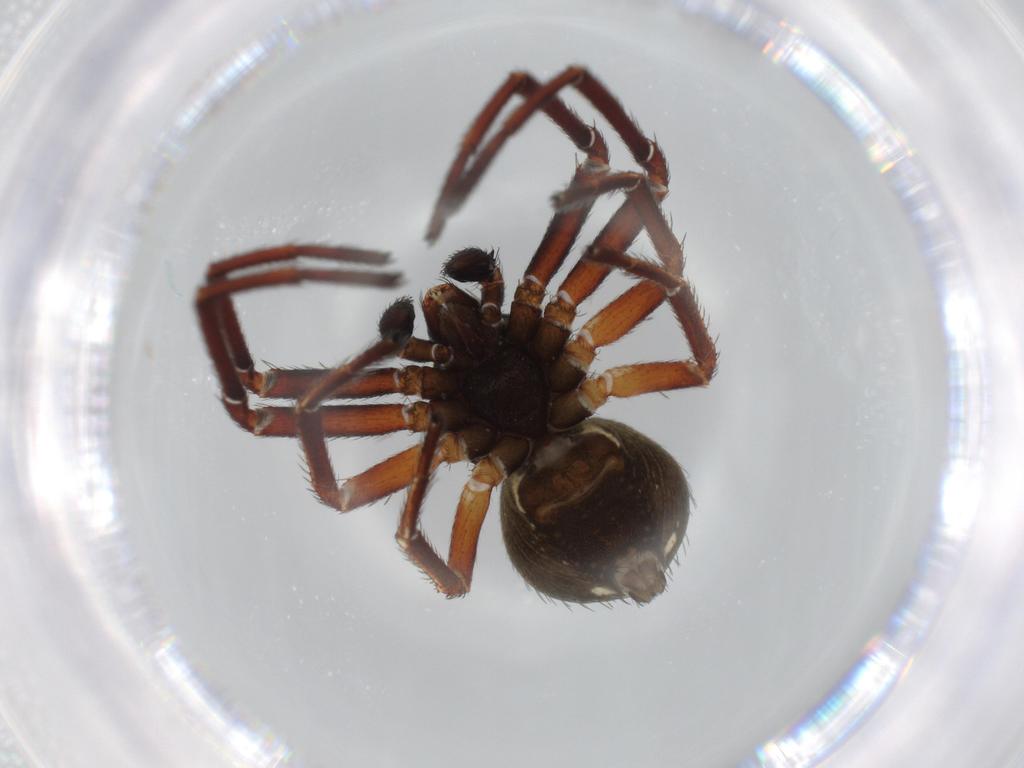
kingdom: Animalia
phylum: Arthropoda
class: Arachnida
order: Araneae
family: Thomisidae
